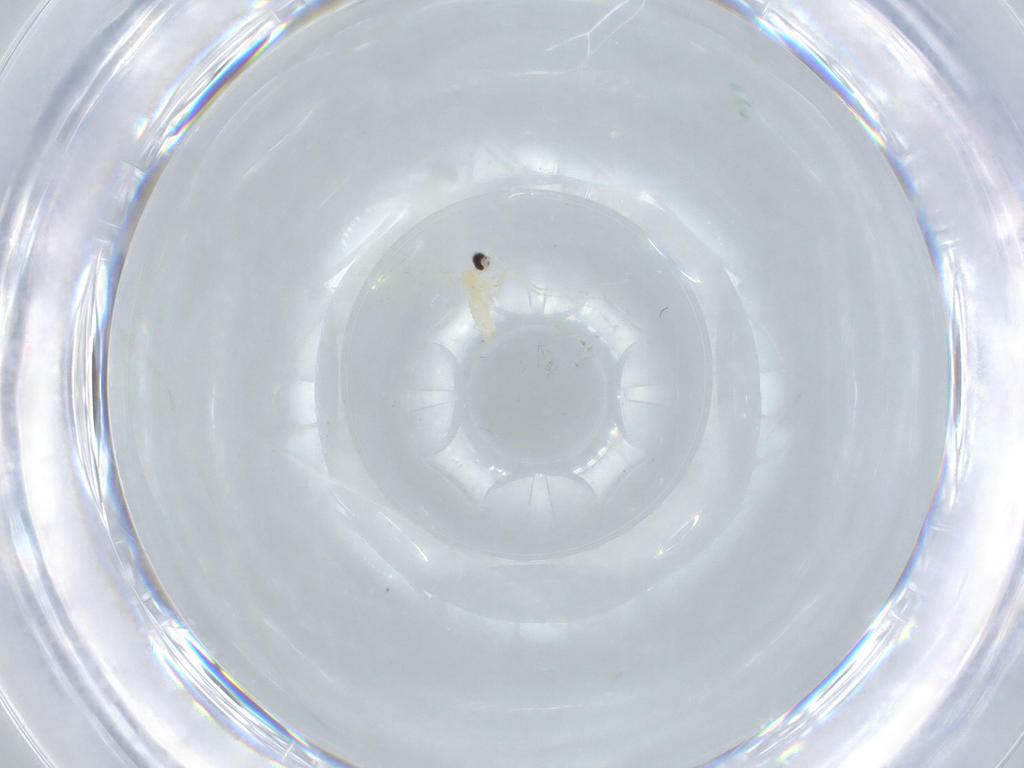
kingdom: Animalia
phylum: Arthropoda
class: Insecta
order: Diptera
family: Cecidomyiidae
